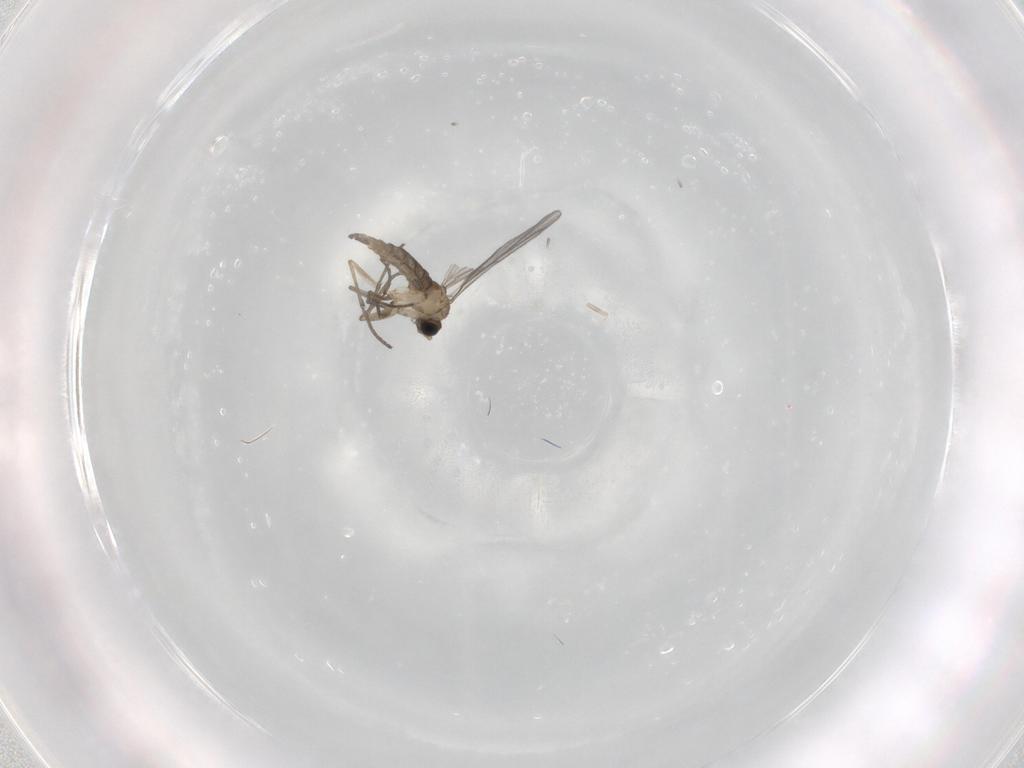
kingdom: Animalia
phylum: Arthropoda
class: Insecta
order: Diptera
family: Sciaridae
